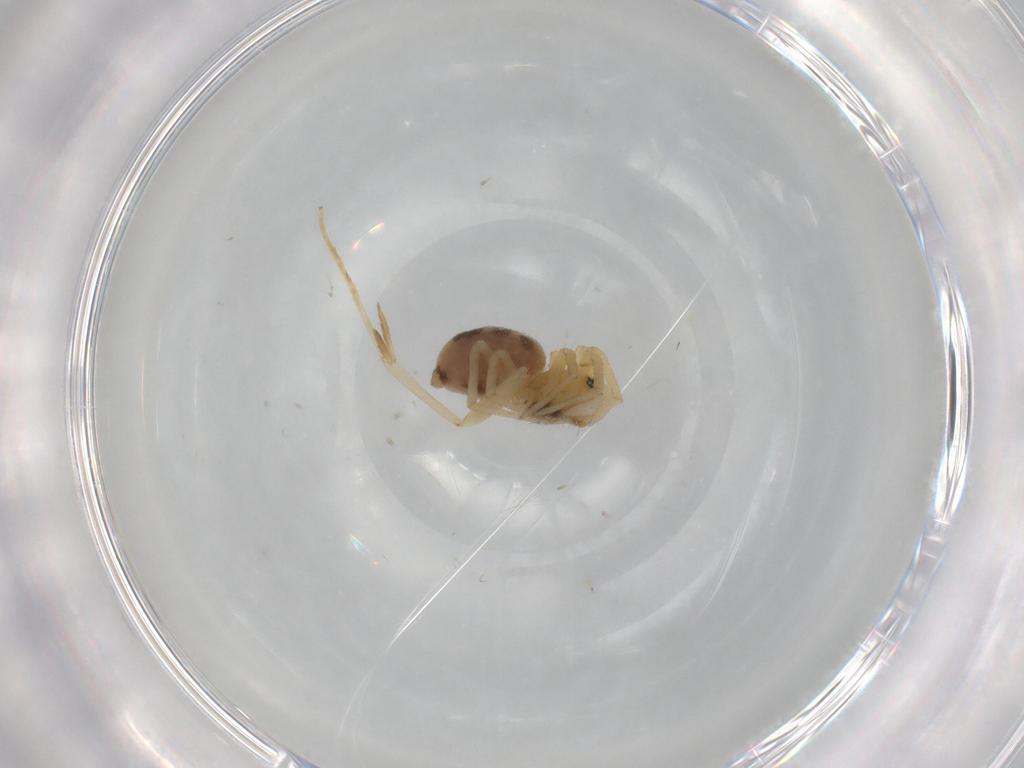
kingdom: Animalia
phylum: Arthropoda
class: Arachnida
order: Araneae
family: Linyphiidae
